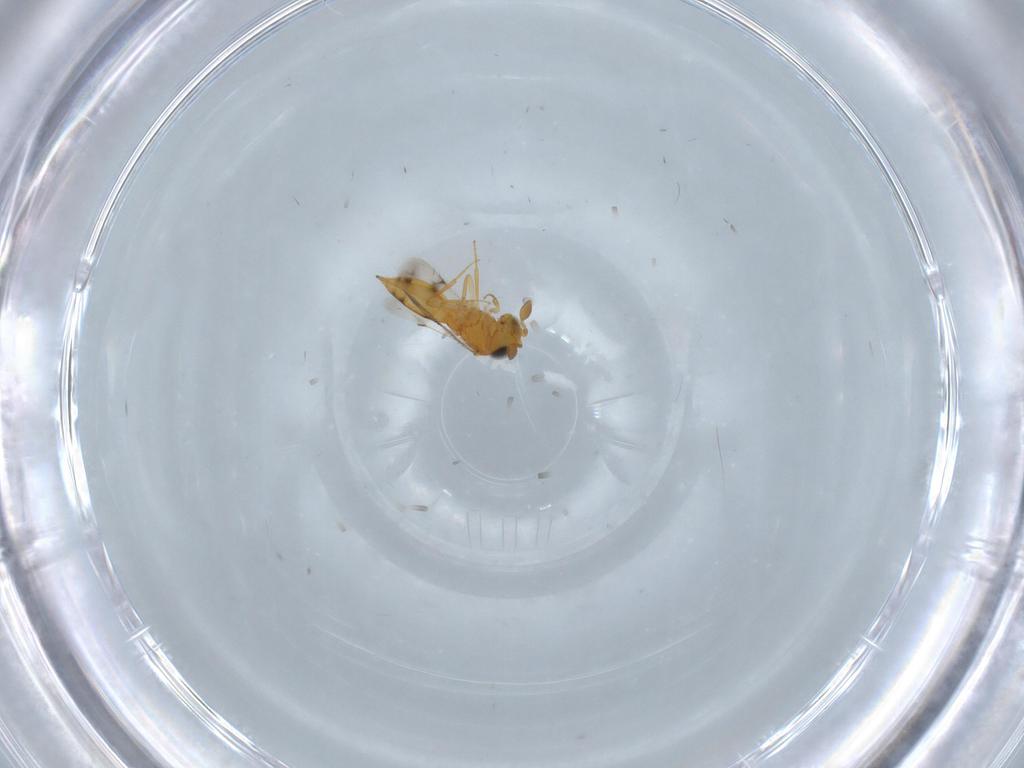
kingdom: Animalia
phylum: Arthropoda
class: Insecta
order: Hymenoptera
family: Scelionidae
